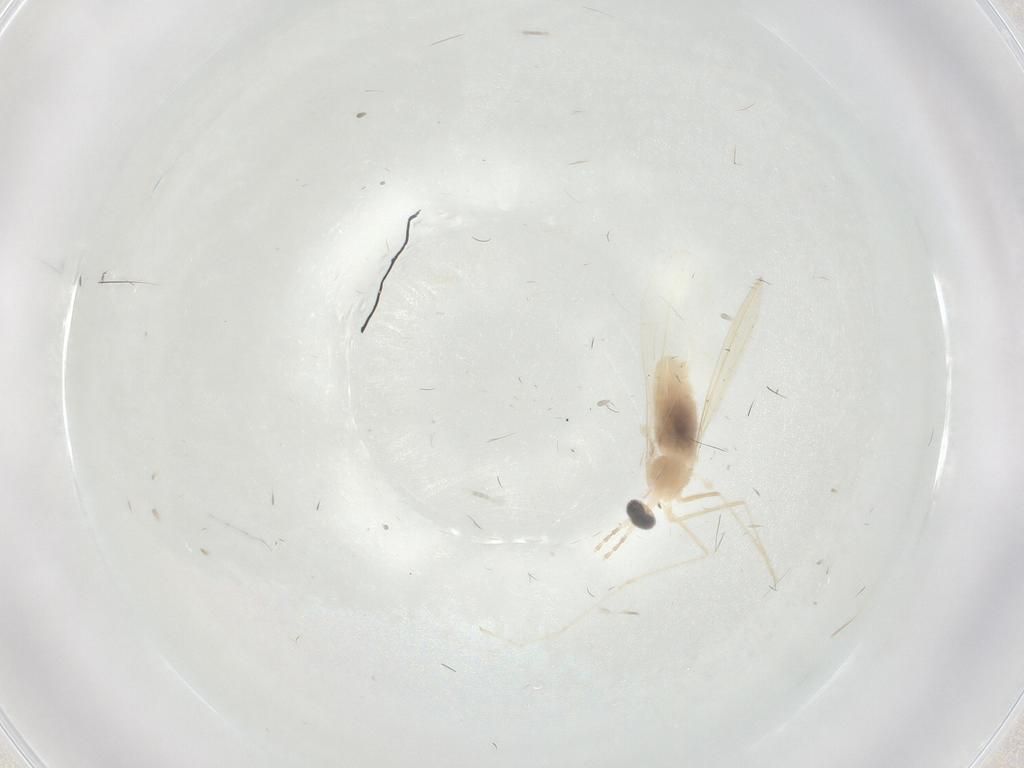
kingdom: Animalia
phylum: Arthropoda
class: Insecta
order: Diptera
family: Cecidomyiidae
